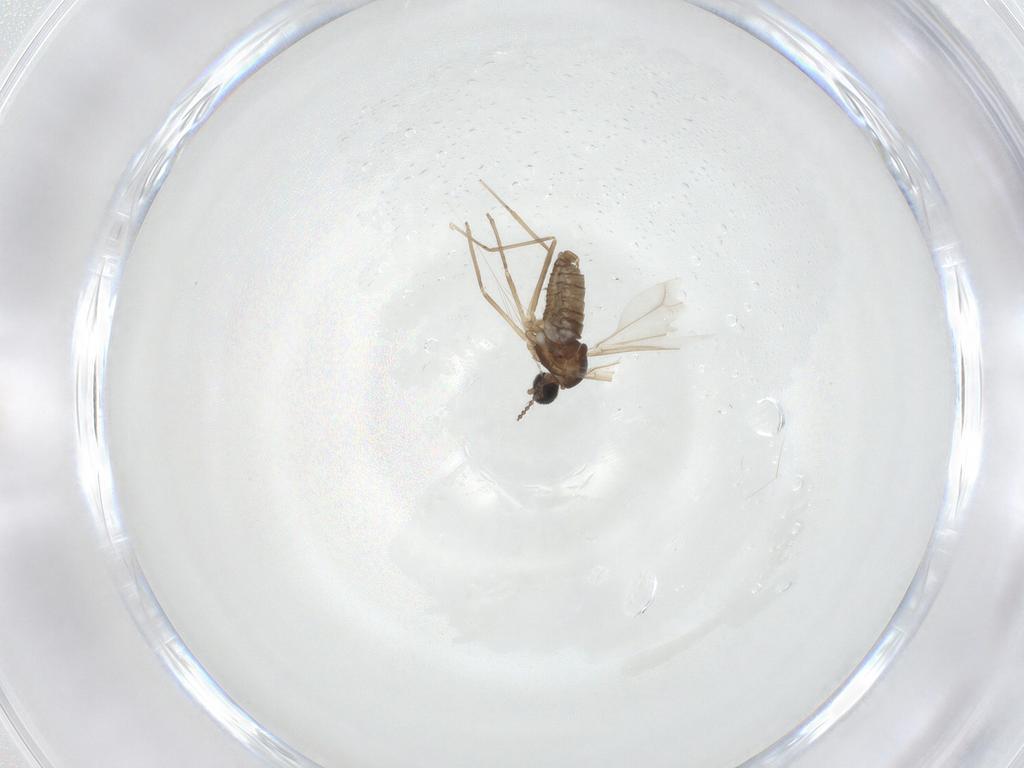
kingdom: Animalia
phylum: Arthropoda
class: Insecta
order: Diptera
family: Cecidomyiidae
